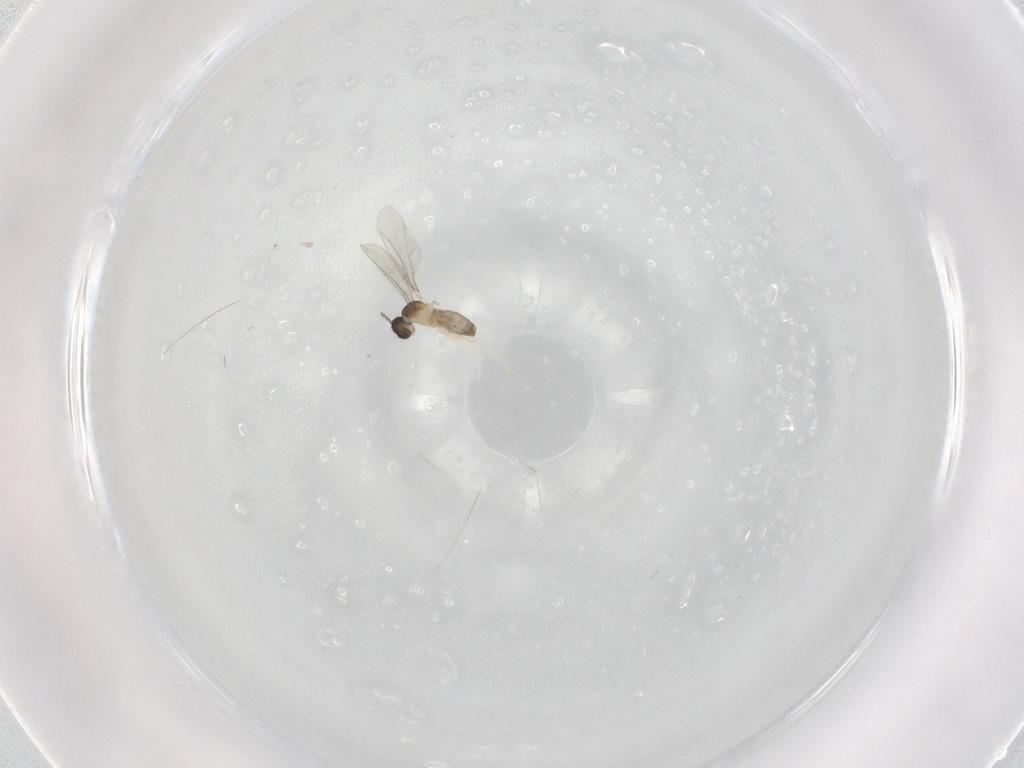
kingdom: Animalia
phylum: Arthropoda
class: Insecta
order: Diptera
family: Cecidomyiidae
